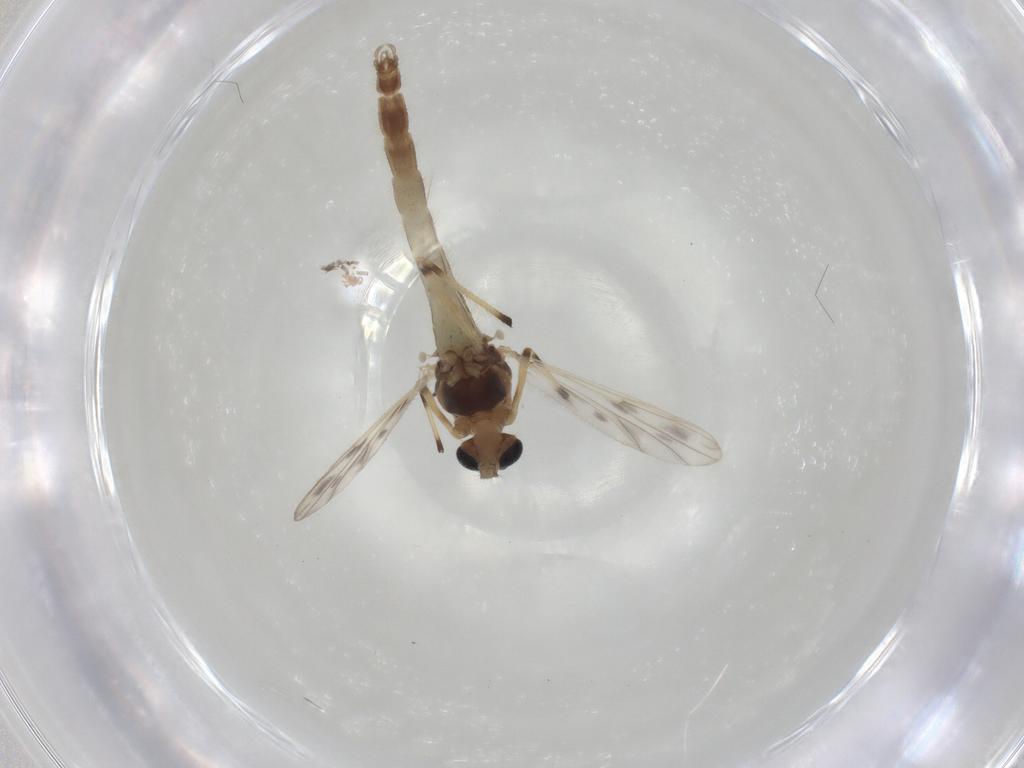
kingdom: Animalia
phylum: Arthropoda
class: Insecta
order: Diptera
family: Chironomidae
